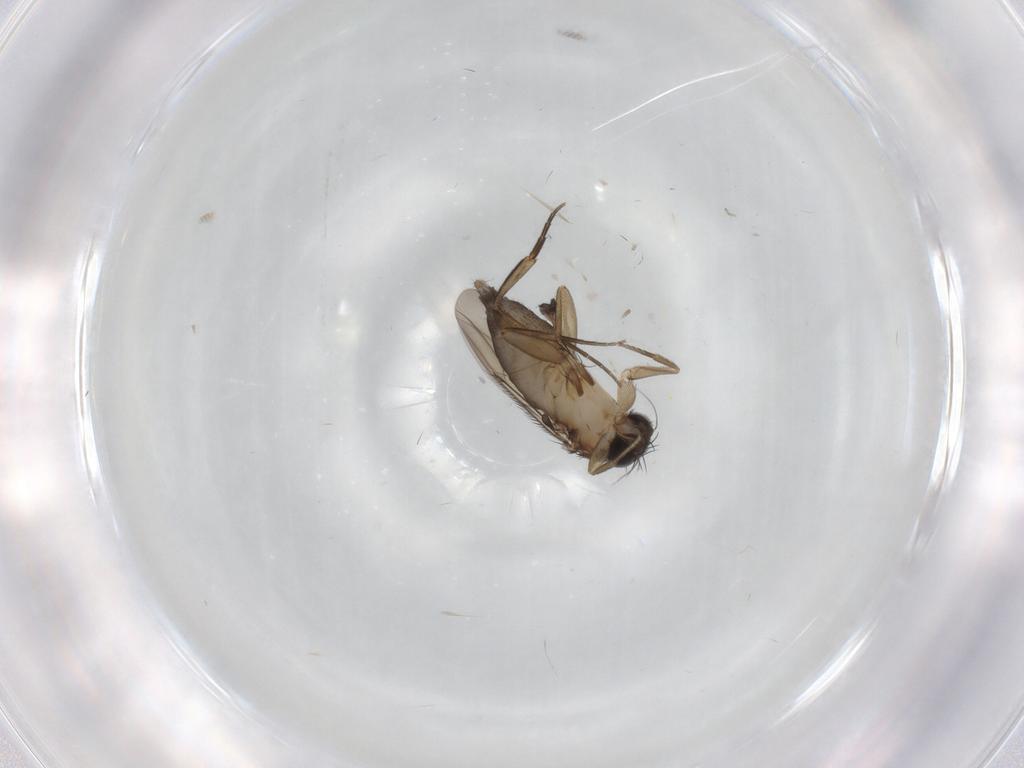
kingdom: Animalia
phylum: Arthropoda
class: Insecta
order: Diptera
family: Phoridae
